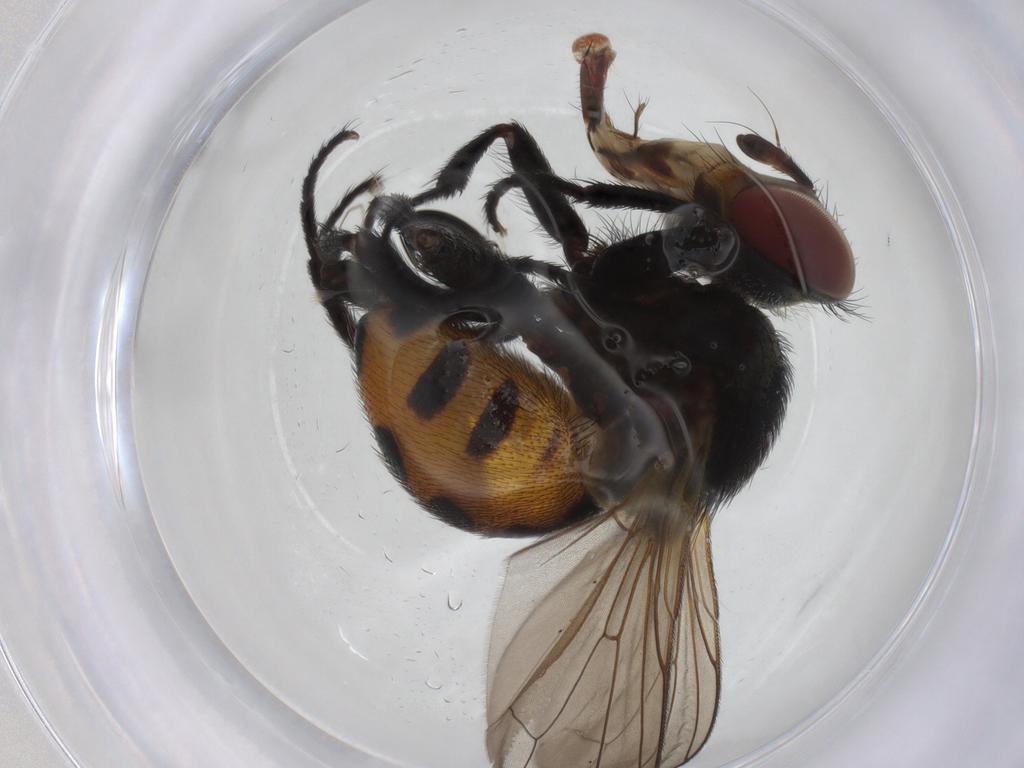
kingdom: Animalia
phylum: Arthropoda
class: Insecta
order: Diptera
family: Tachinidae
